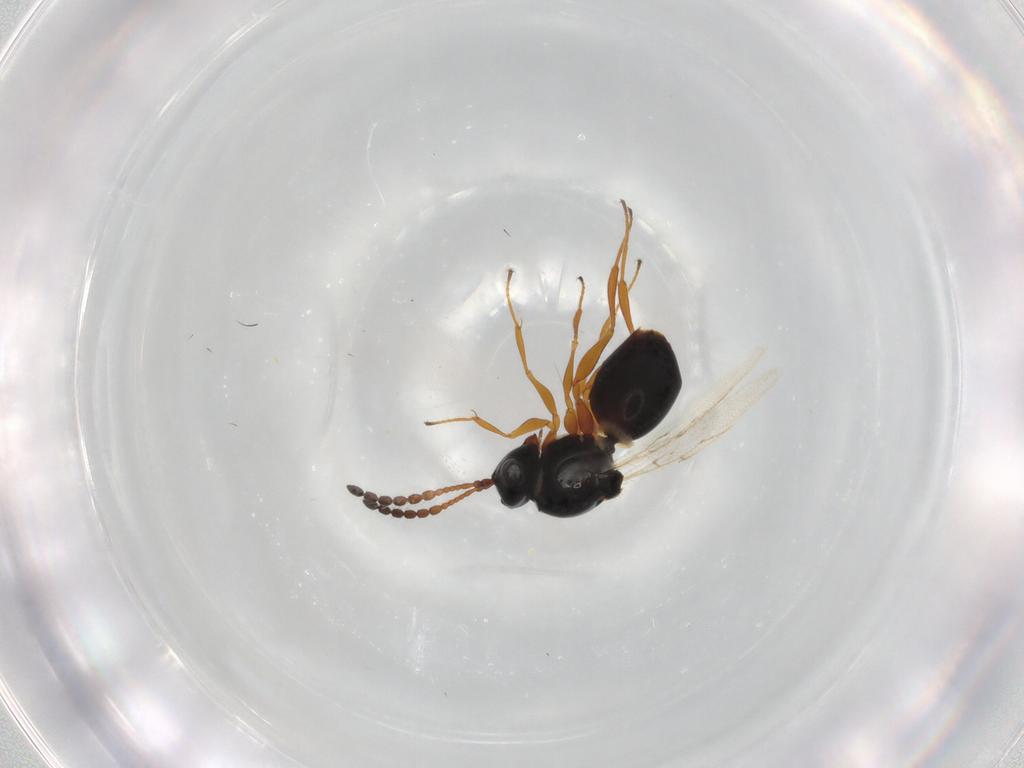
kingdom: Animalia
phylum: Arthropoda
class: Insecta
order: Hymenoptera
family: Figitidae
